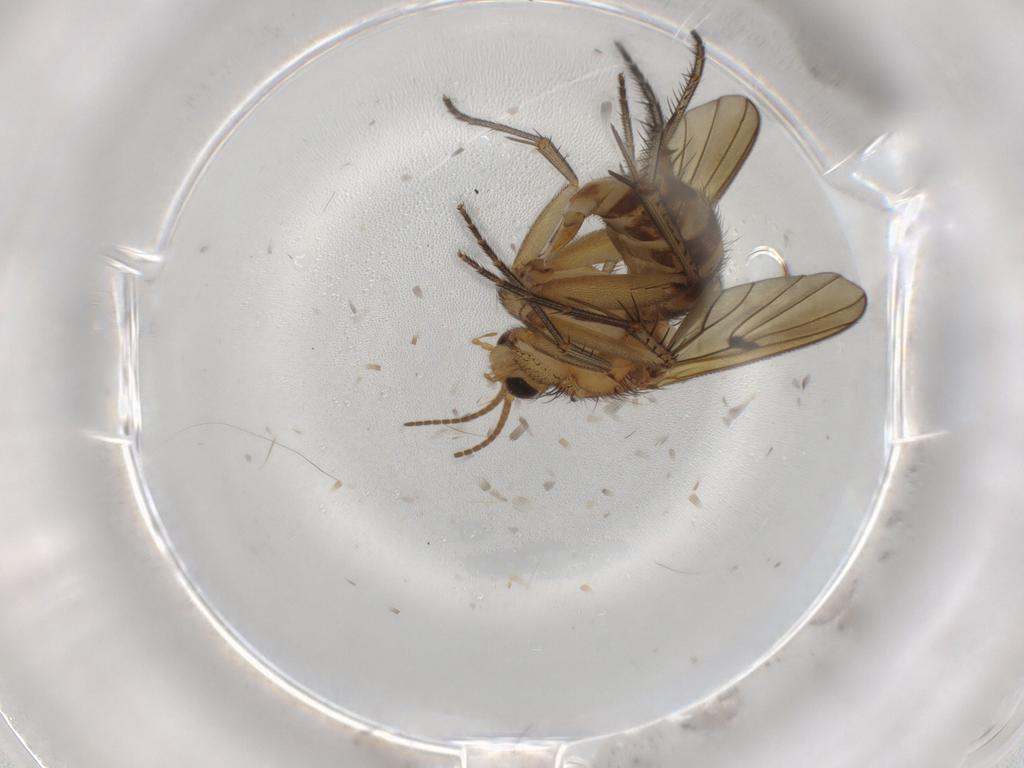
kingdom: Animalia
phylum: Arthropoda
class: Insecta
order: Diptera
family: Mycetophilidae
